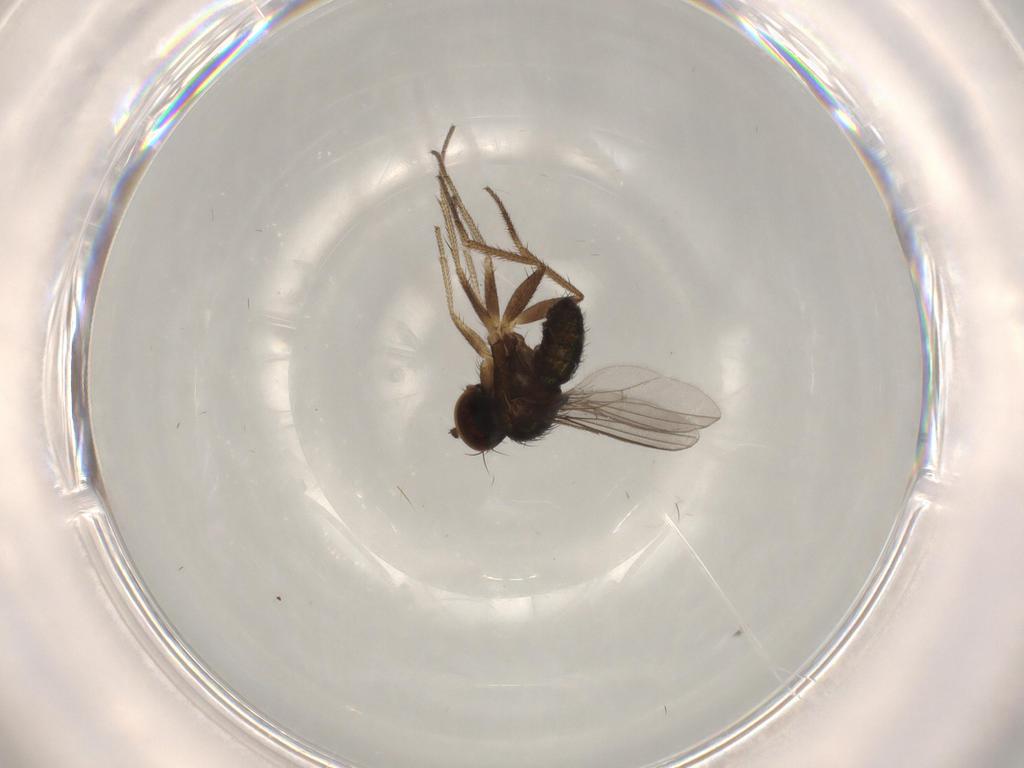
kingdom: Animalia
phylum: Arthropoda
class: Insecta
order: Diptera
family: Dolichopodidae
